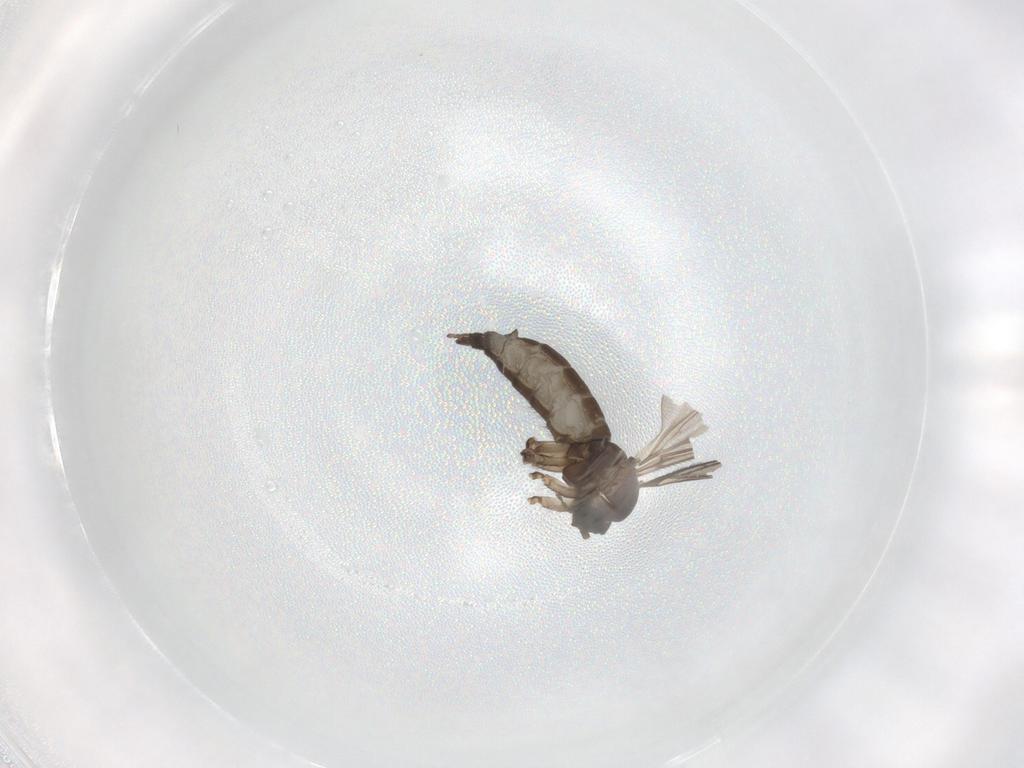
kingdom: Animalia
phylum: Arthropoda
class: Insecta
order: Diptera
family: Sciaridae
